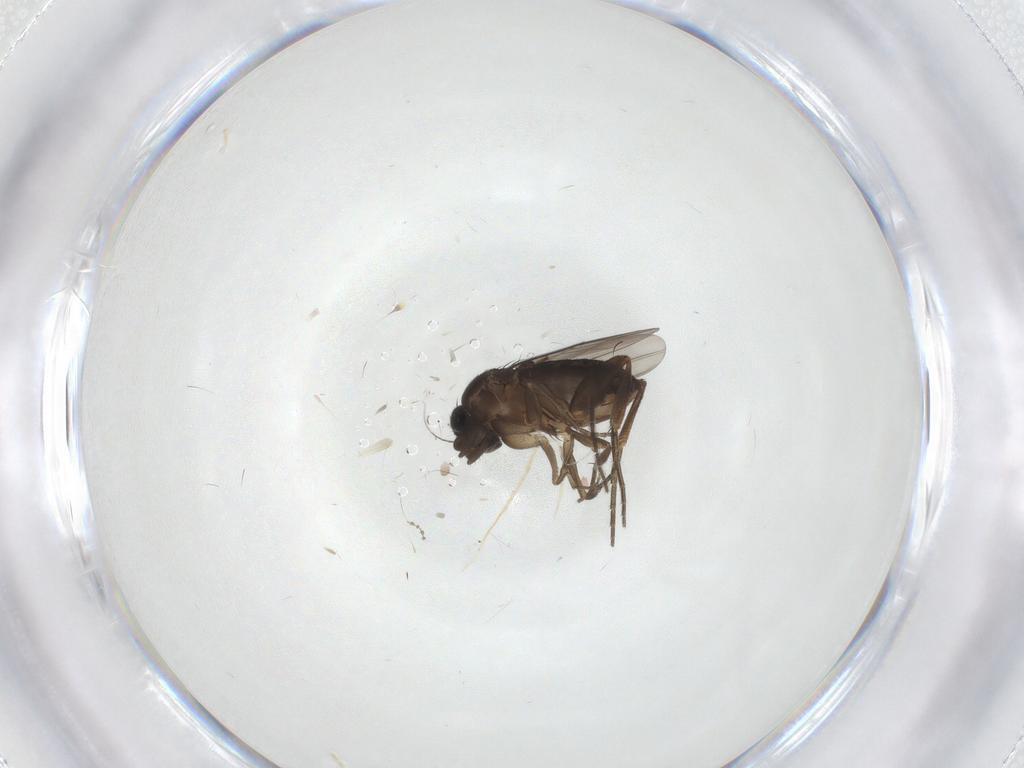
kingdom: Animalia
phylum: Arthropoda
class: Insecta
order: Diptera
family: Phoridae
